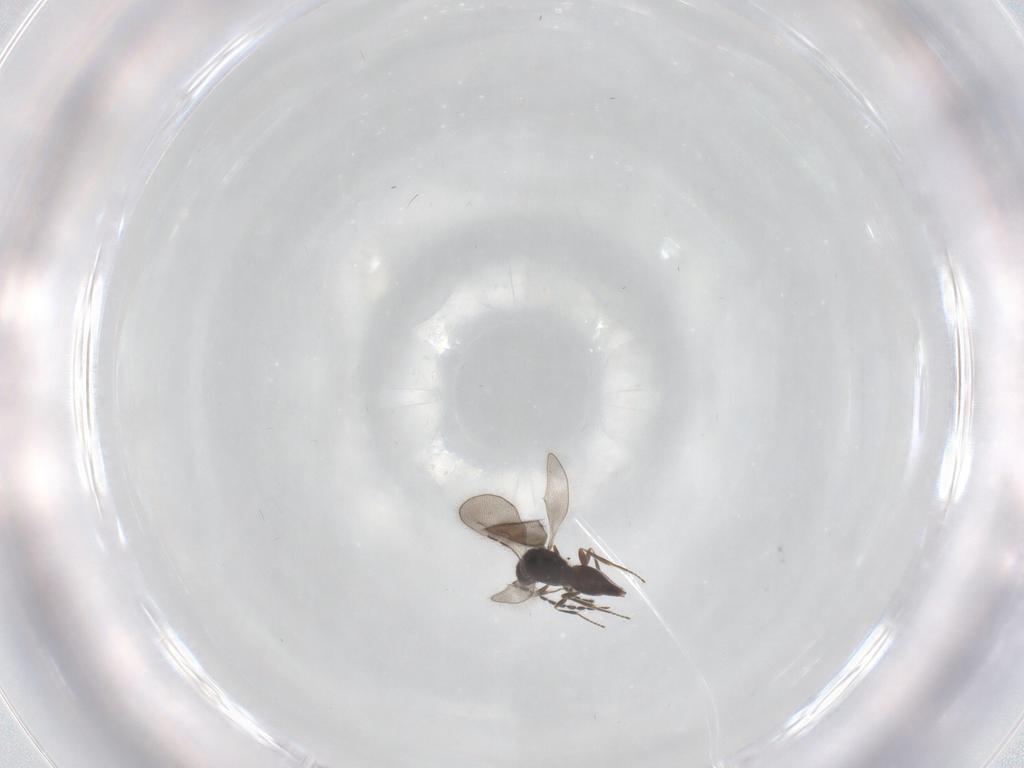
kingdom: Animalia
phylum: Arthropoda
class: Insecta
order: Hymenoptera
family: Ceraphronidae
